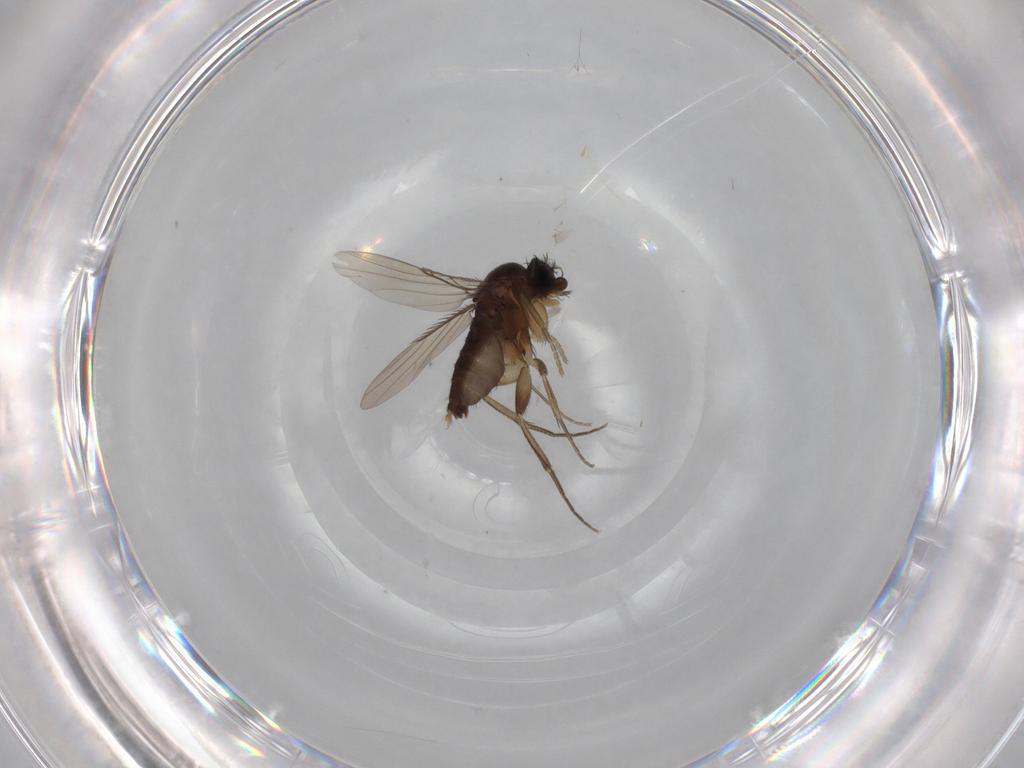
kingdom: Animalia
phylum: Arthropoda
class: Insecta
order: Diptera
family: Phoridae
